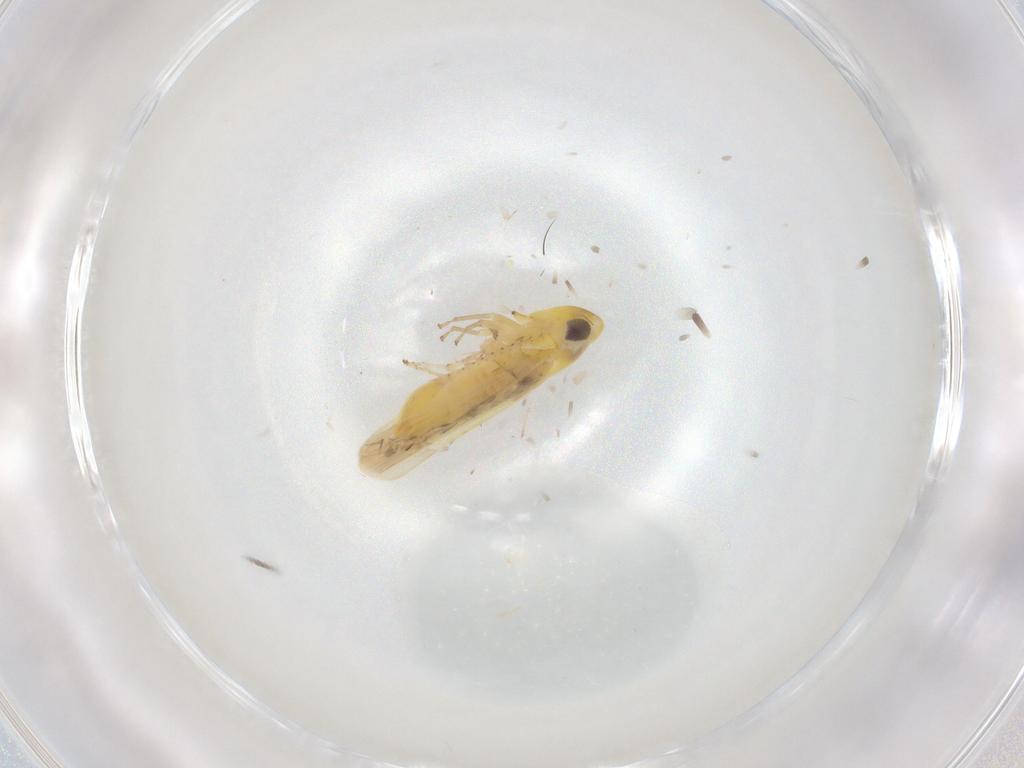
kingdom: Animalia
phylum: Arthropoda
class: Insecta
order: Hemiptera
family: Cicadellidae
